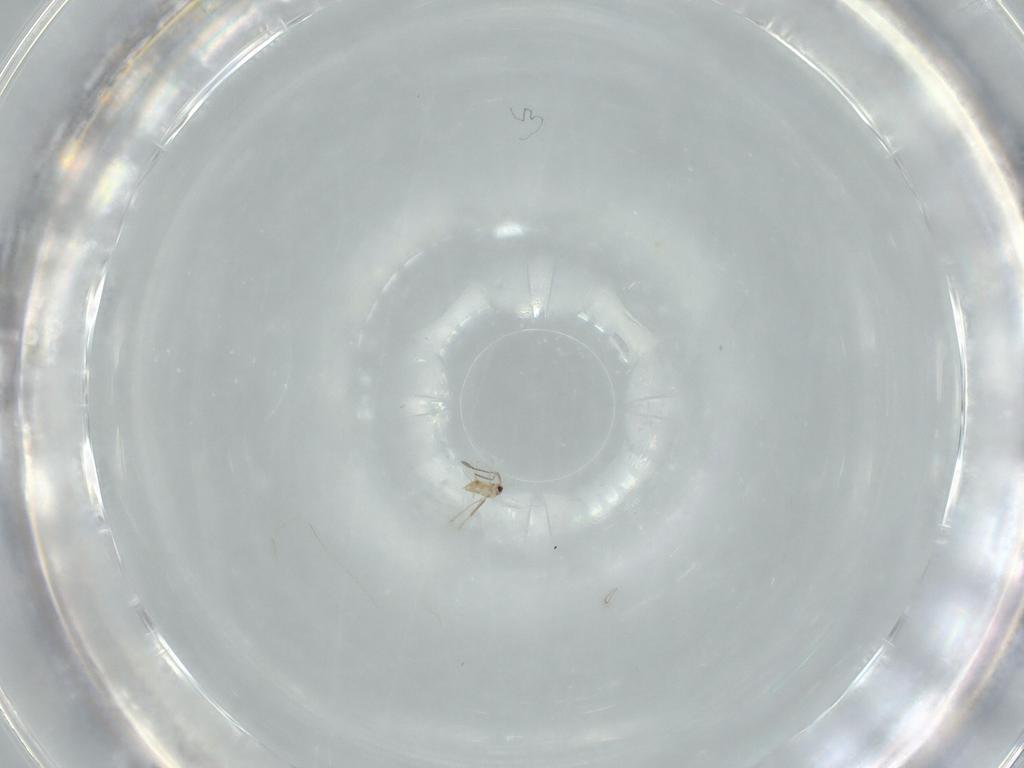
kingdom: Animalia
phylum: Arthropoda
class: Insecta
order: Hymenoptera
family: Mymaridae
